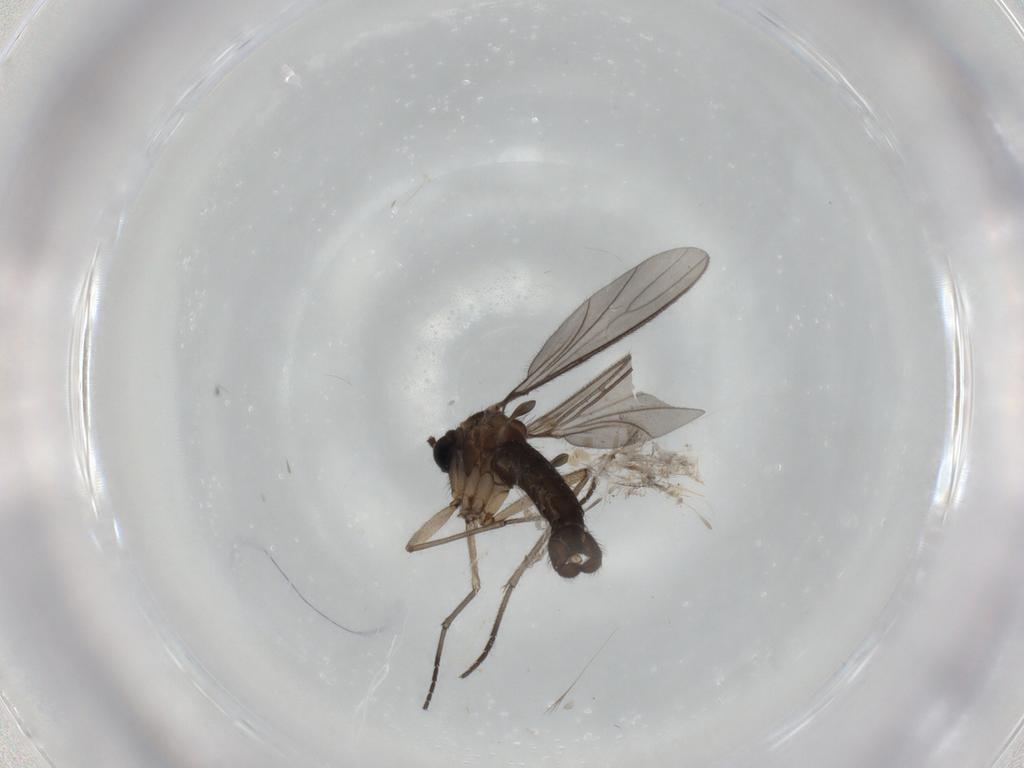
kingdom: Animalia
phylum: Arthropoda
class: Insecta
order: Diptera
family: Sciaridae
